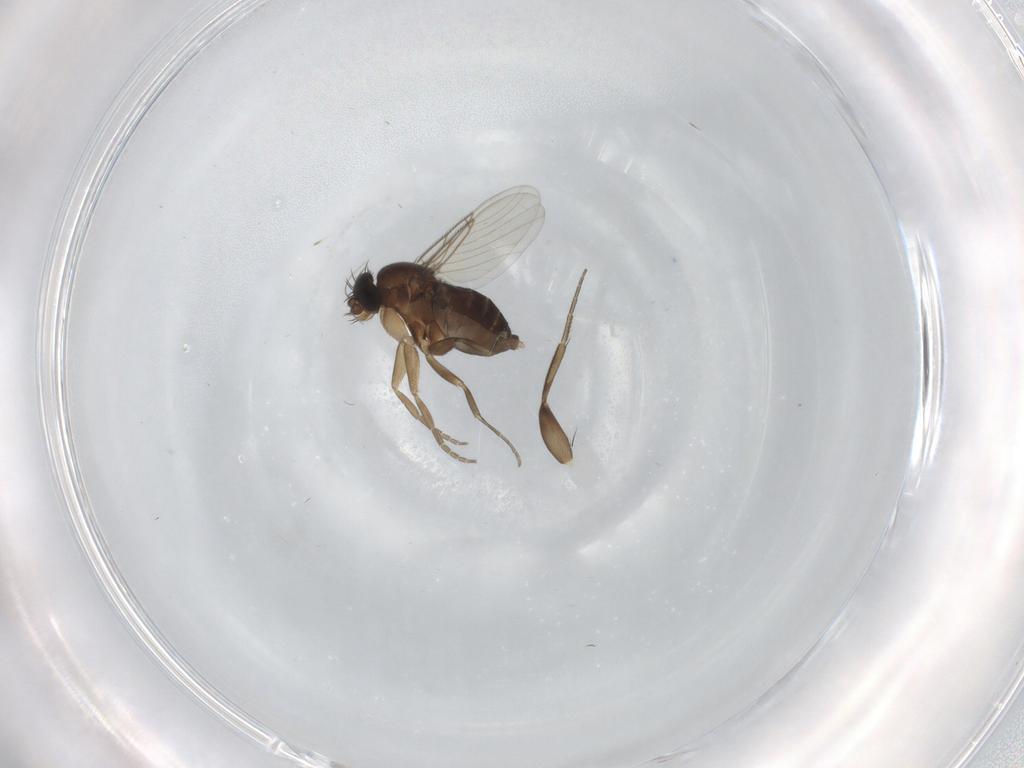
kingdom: Animalia
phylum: Arthropoda
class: Insecta
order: Diptera
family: Phoridae
